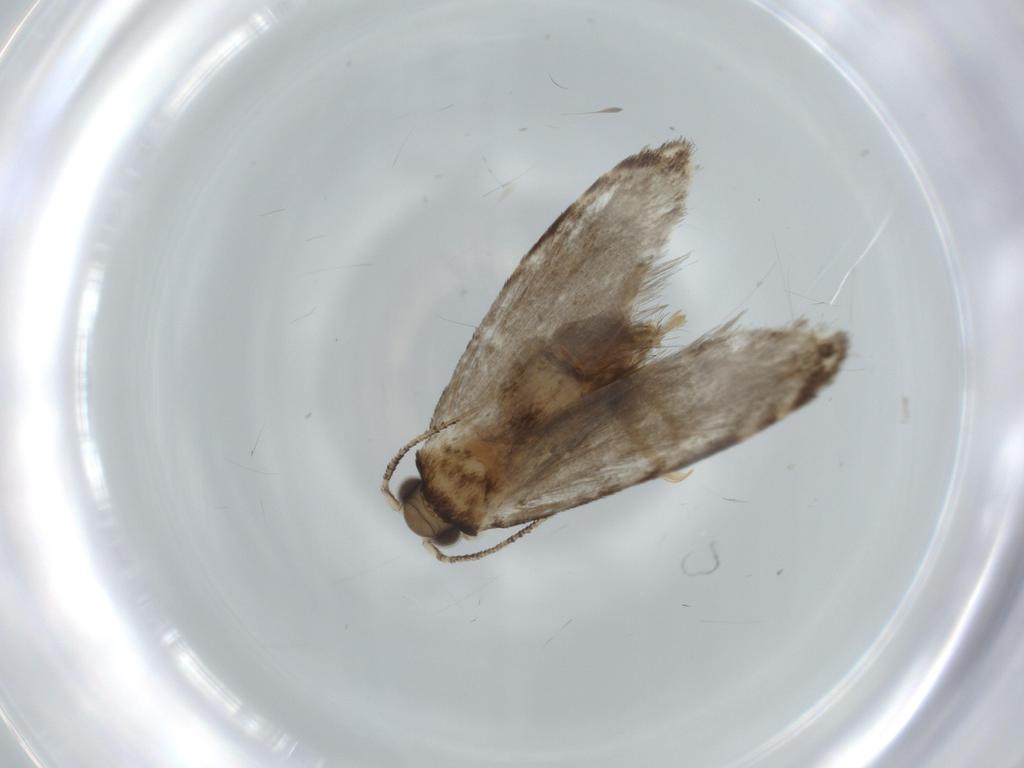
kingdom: Animalia
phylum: Arthropoda
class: Insecta
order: Lepidoptera
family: Tineidae
